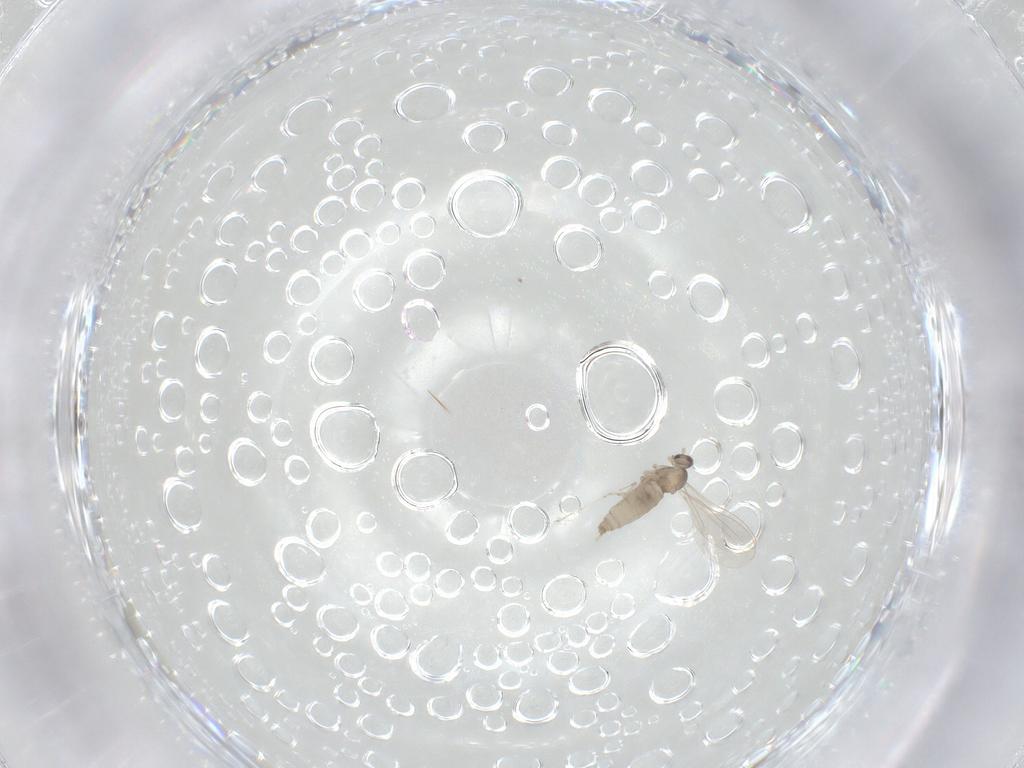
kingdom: Animalia
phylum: Arthropoda
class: Insecta
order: Diptera
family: Cecidomyiidae
